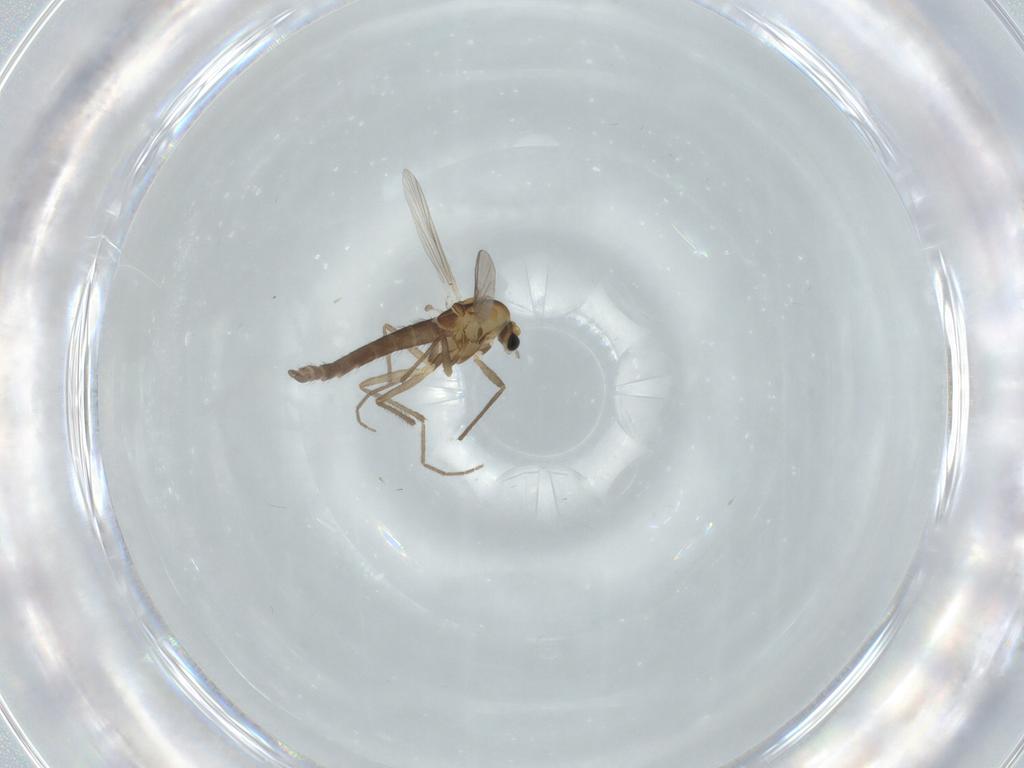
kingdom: Animalia
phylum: Arthropoda
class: Insecta
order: Diptera
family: Chironomidae
